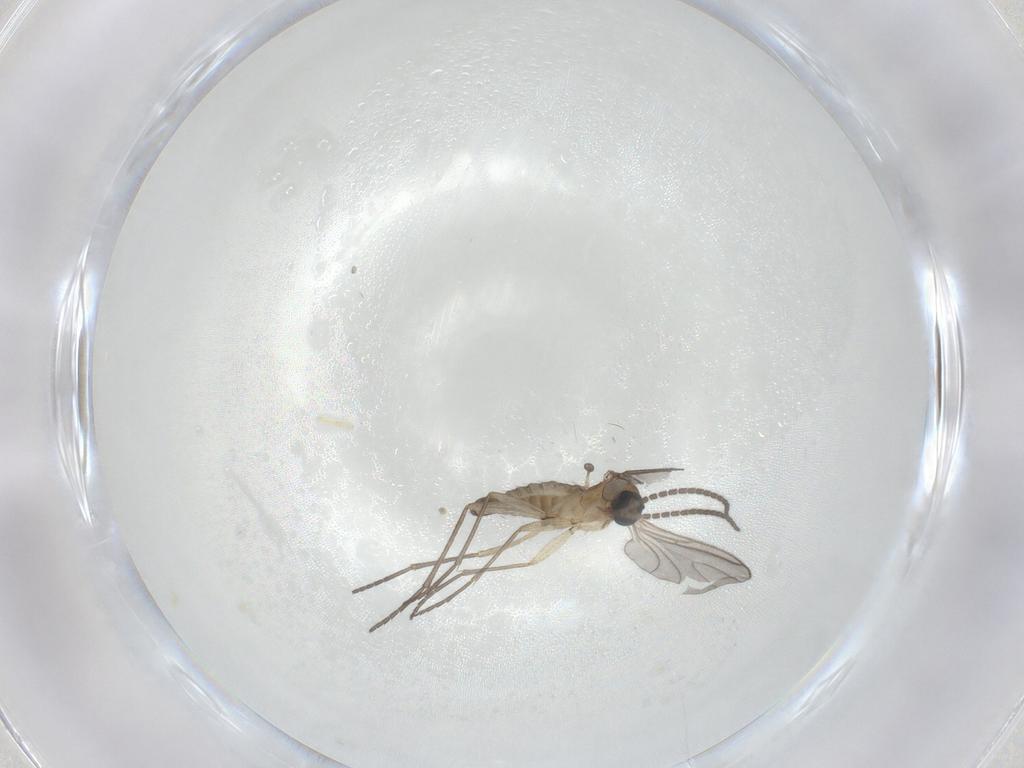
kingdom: Animalia
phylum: Arthropoda
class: Insecta
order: Diptera
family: Sciaridae
